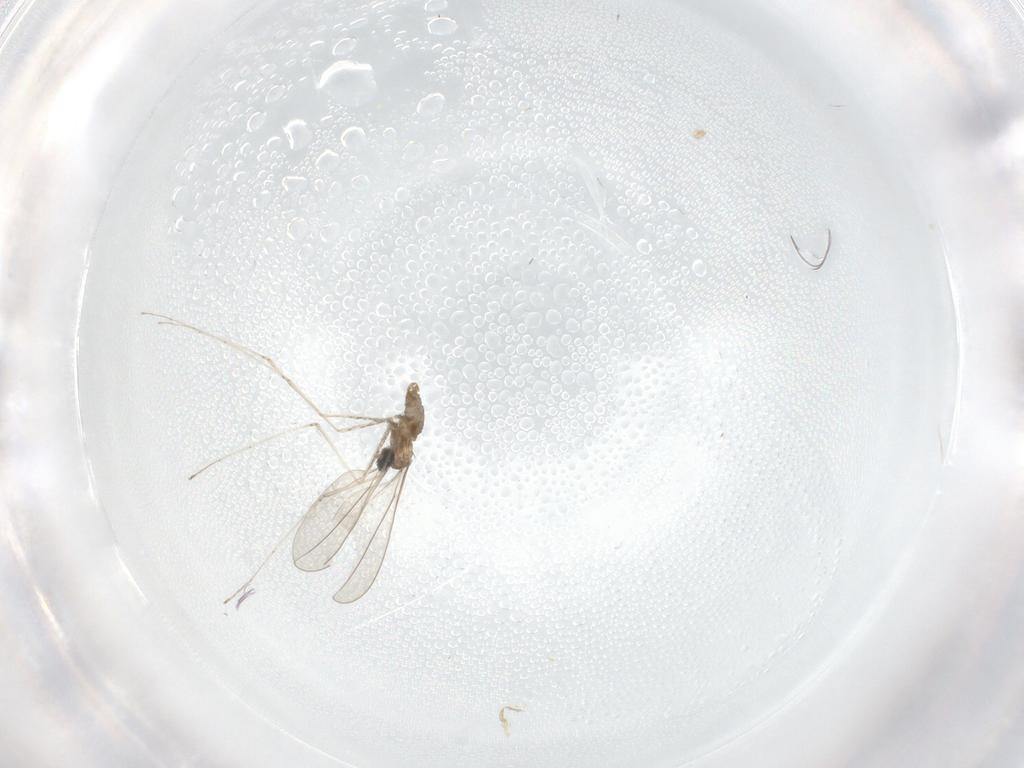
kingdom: Animalia
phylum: Arthropoda
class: Insecta
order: Diptera
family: Cecidomyiidae
